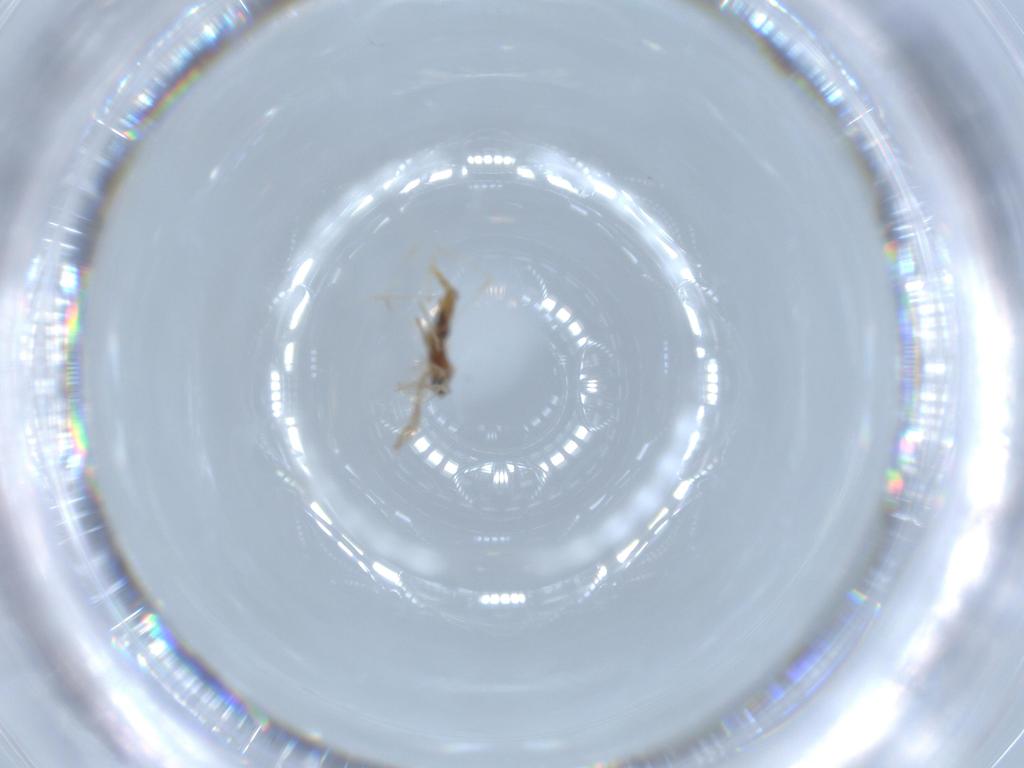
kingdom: Animalia
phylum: Arthropoda
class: Insecta
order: Diptera
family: Cecidomyiidae
